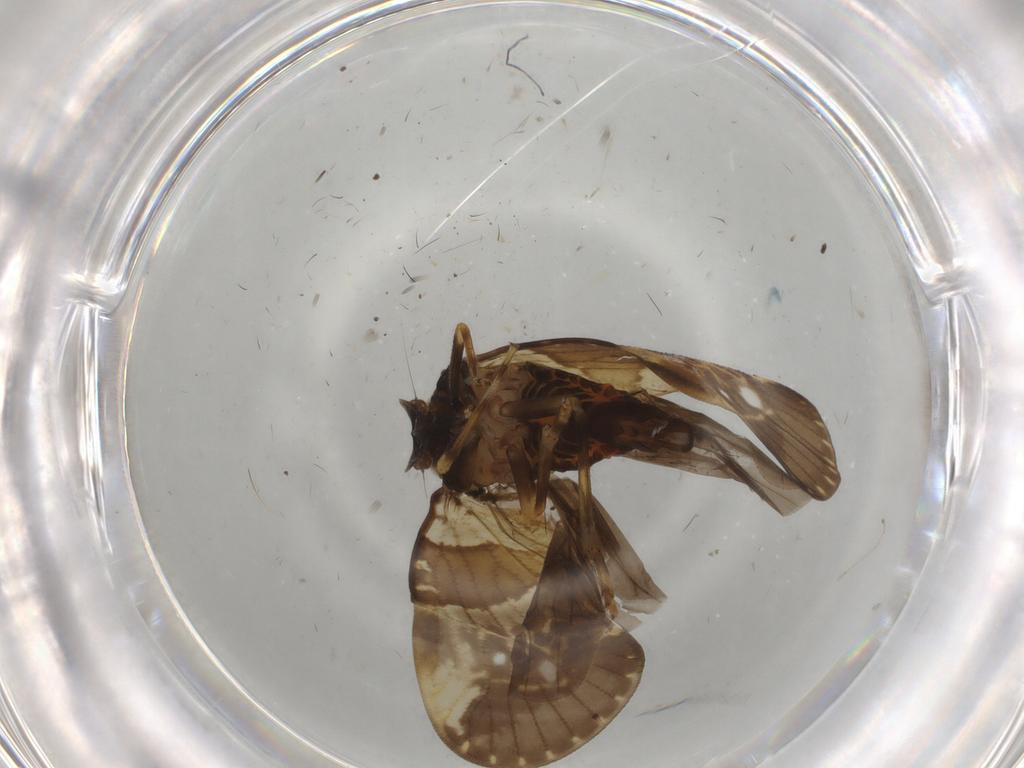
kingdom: Animalia
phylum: Arthropoda
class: Insecta
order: Hemiptera
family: Cixiidae
